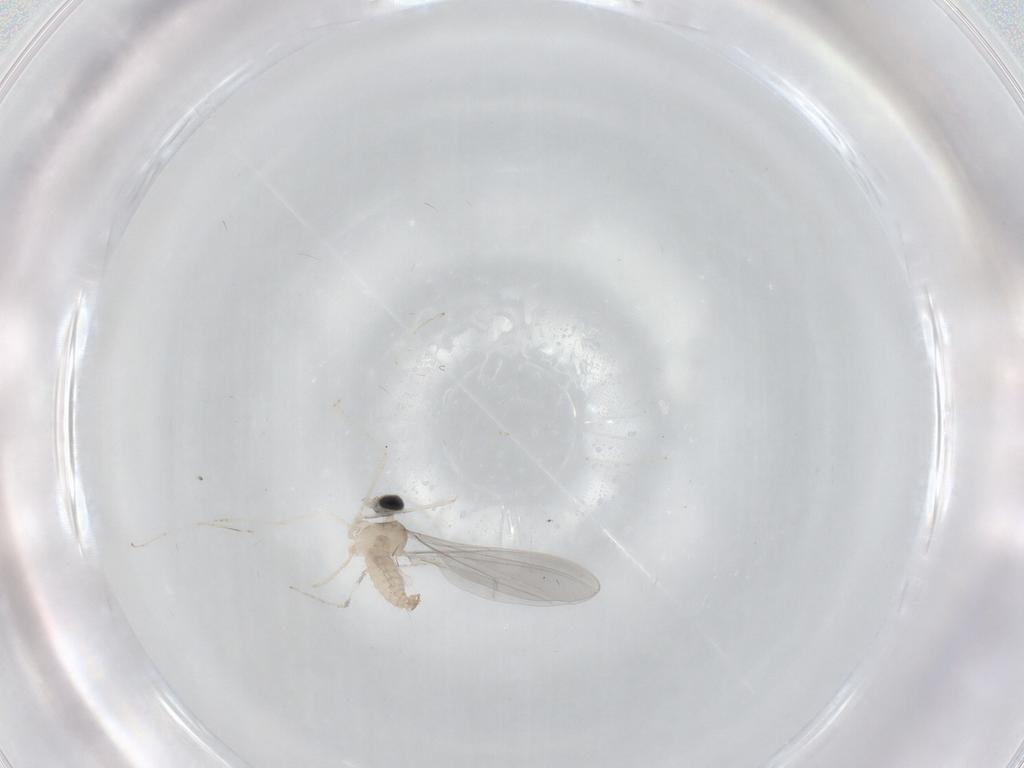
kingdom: Animalia
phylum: Arthropoda
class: Insecta
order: Diptera
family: Cecidomyiidae
